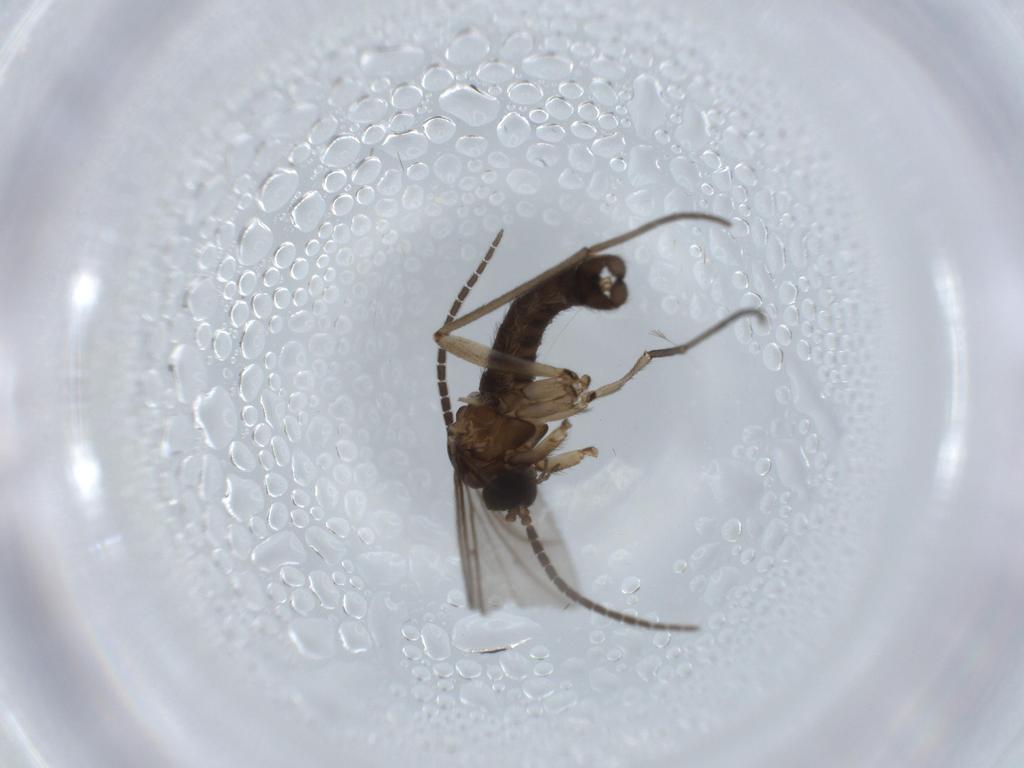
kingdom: Animalia
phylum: Arthropoda
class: Insecta
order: Diptera
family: Sciaridae
